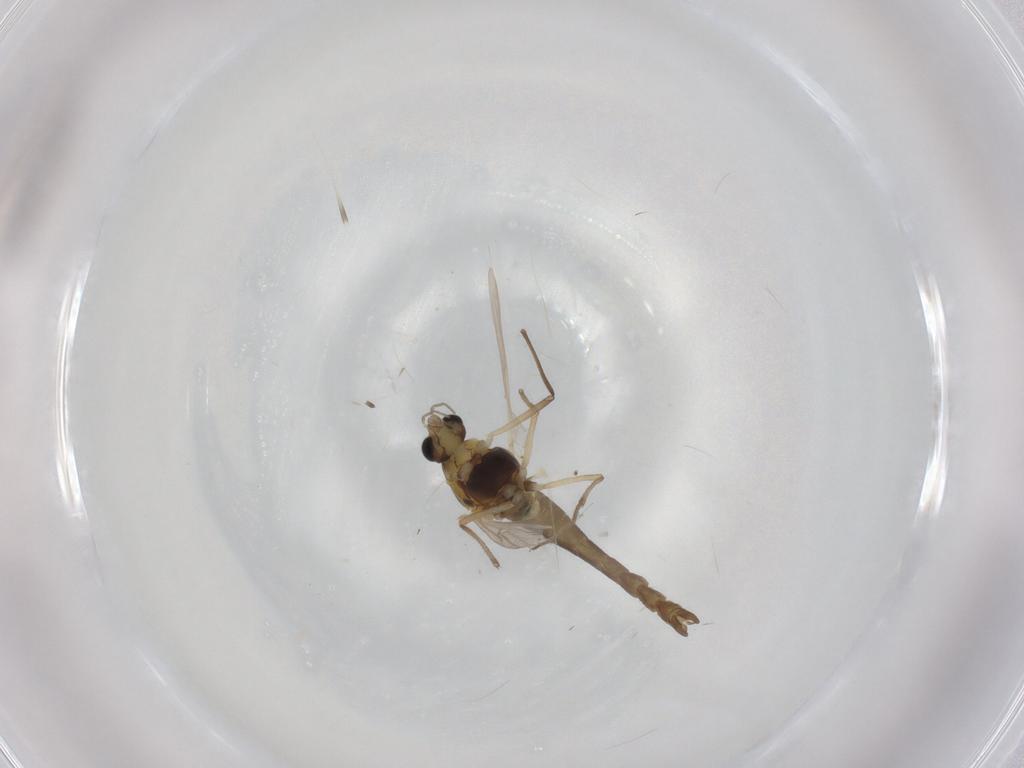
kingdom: Animalia
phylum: Arthropoda
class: Insecta
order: Diptera
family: Chironomidae
